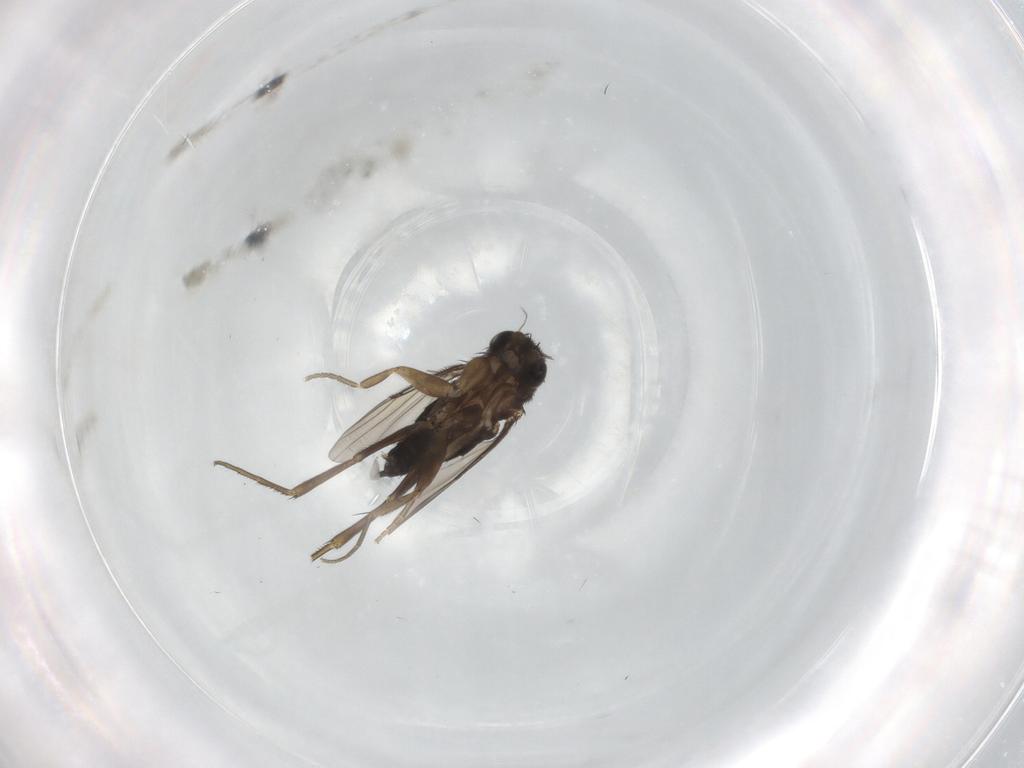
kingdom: Animalia
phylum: Arthropoda
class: Insecta
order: Diptera
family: Phoridae
